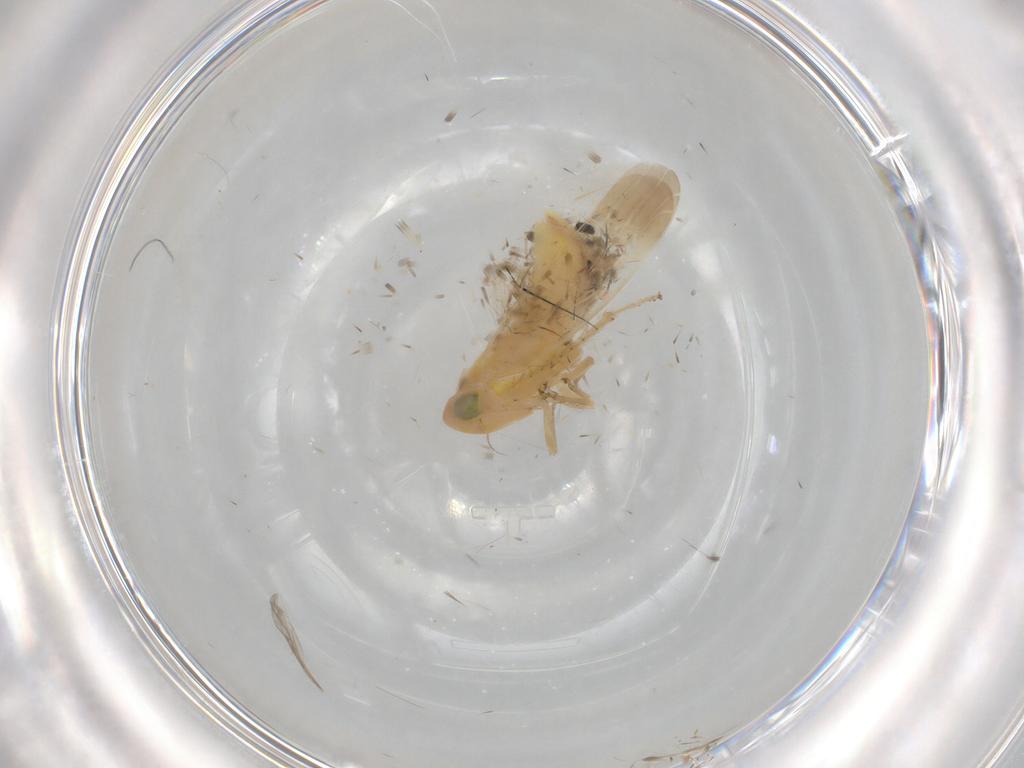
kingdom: Animalia
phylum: Arthropoda
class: Insecta
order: Hemiptera
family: Cicadellidae
